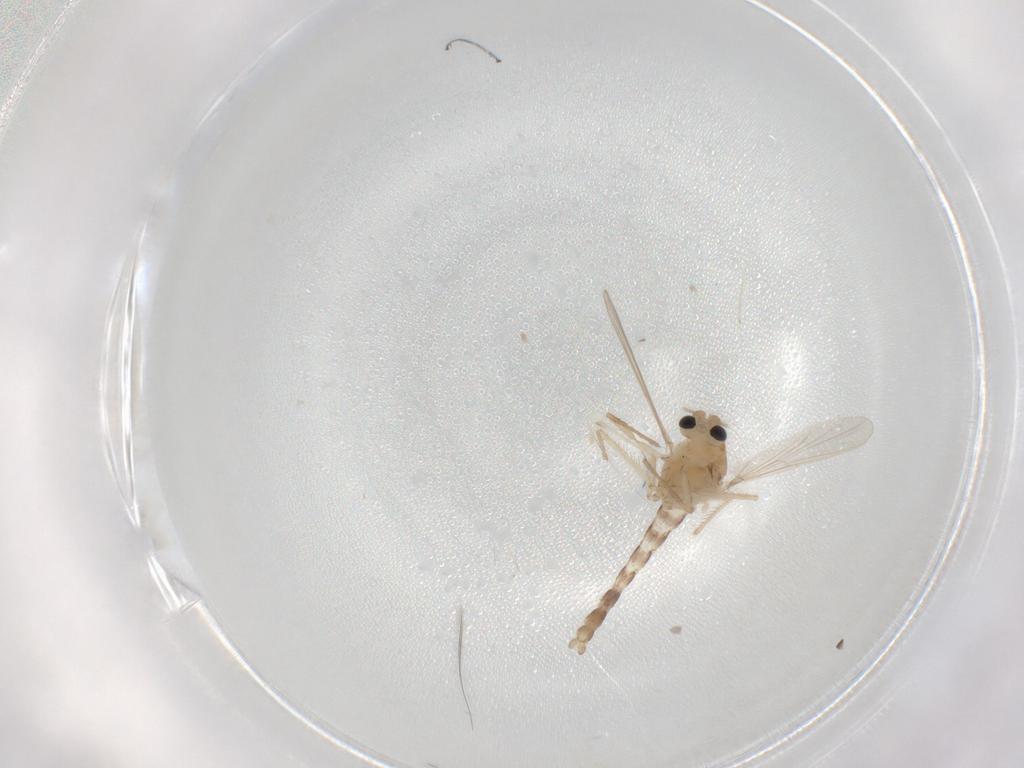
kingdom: Animalia
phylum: Arthropoda
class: Insecta
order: Diptera
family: Chironomidae
